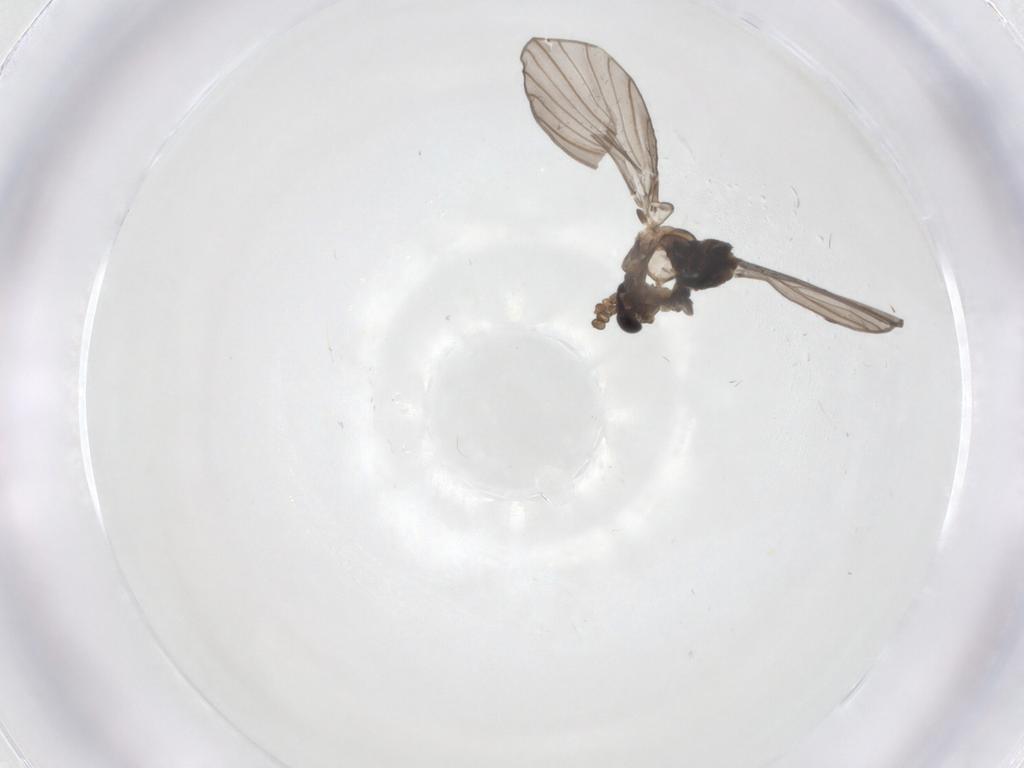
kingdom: Animalia
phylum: Arthropoda
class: Insecta
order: Diptera
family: Psychodidae
